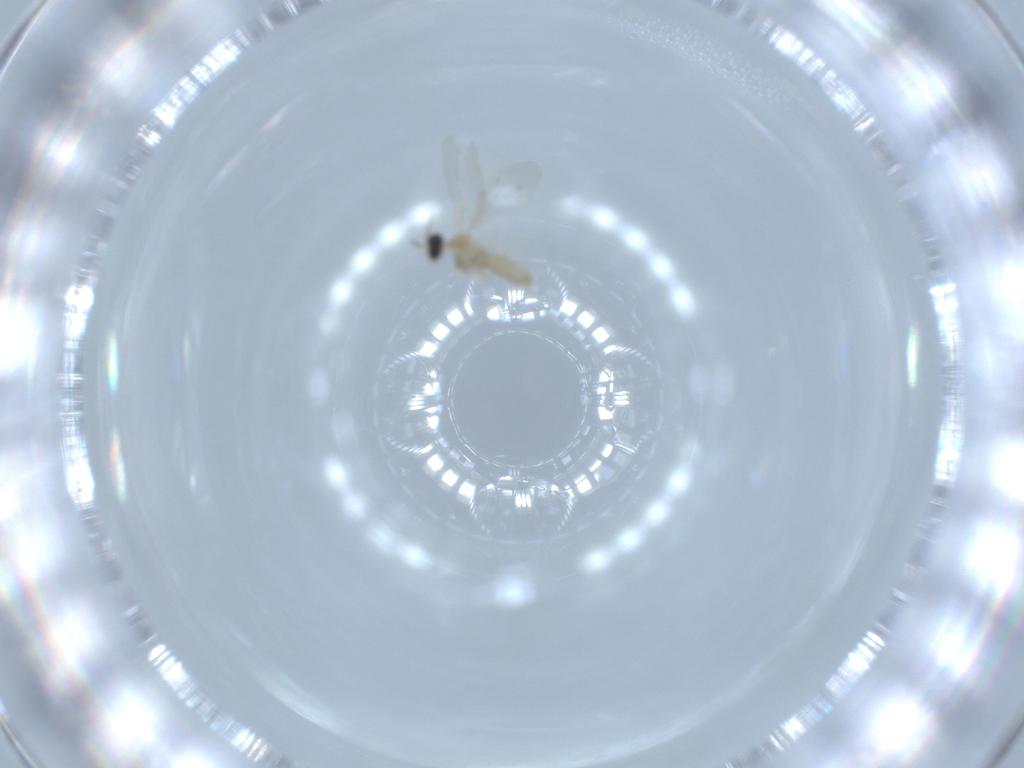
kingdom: Animalia
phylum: Arthropoda
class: Insecta
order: Diptera
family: Cecidomyiidae
